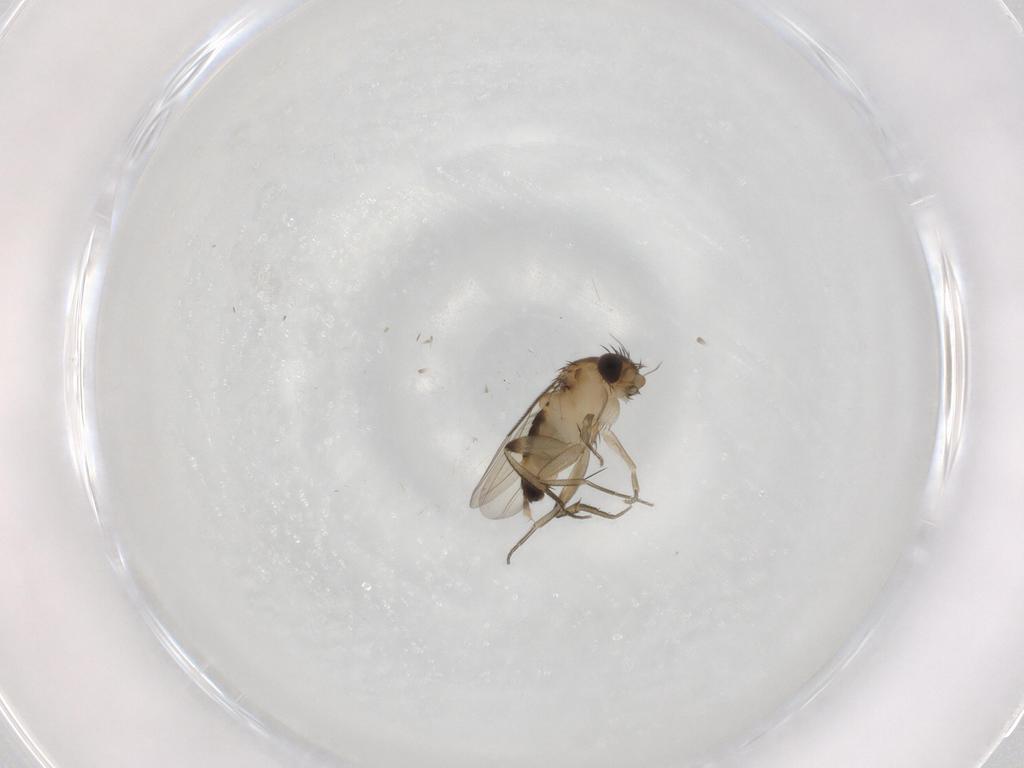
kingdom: Animalia
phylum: Arthropoda
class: Insecta
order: Diptera
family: Phoridae
